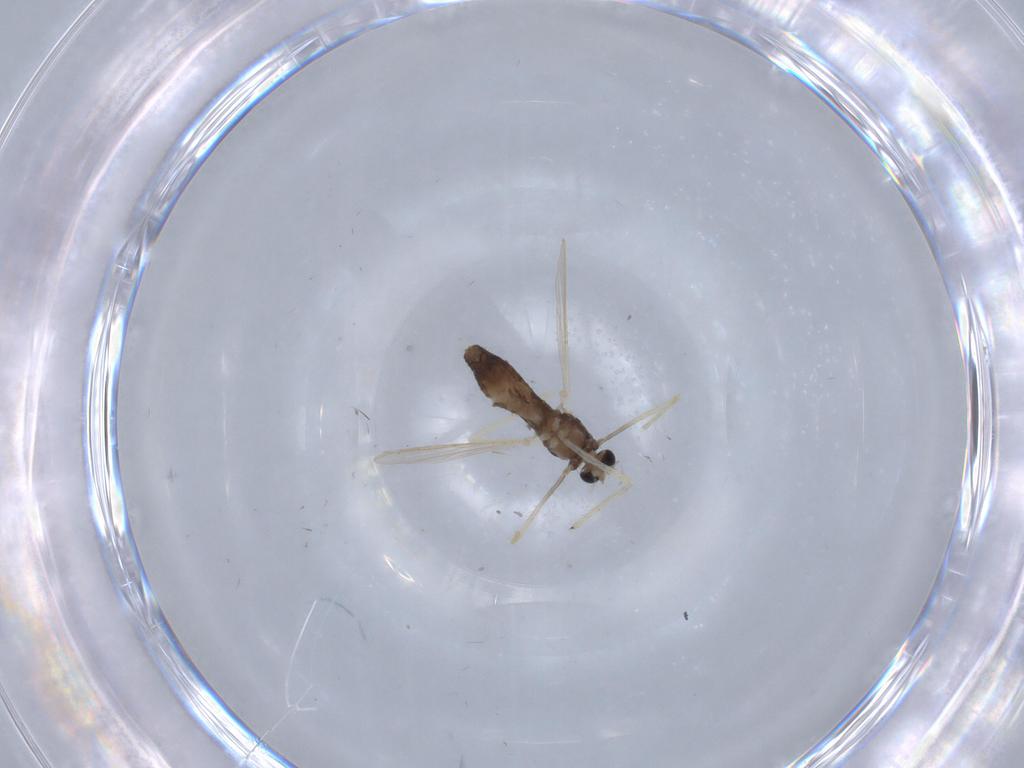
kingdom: Animalia
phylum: Arthropoda
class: Insecta
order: Diptera
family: Chironomidae
